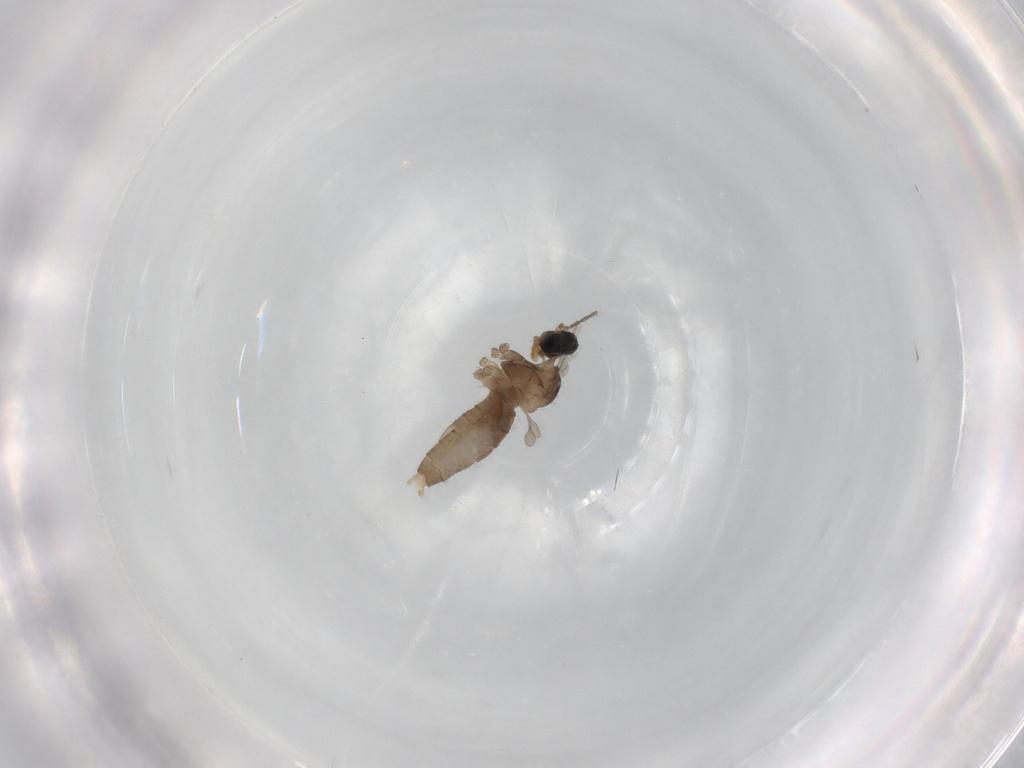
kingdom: Animalia
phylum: Arthropoda
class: Insecta
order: Diptera
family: Cecidomyiidae
